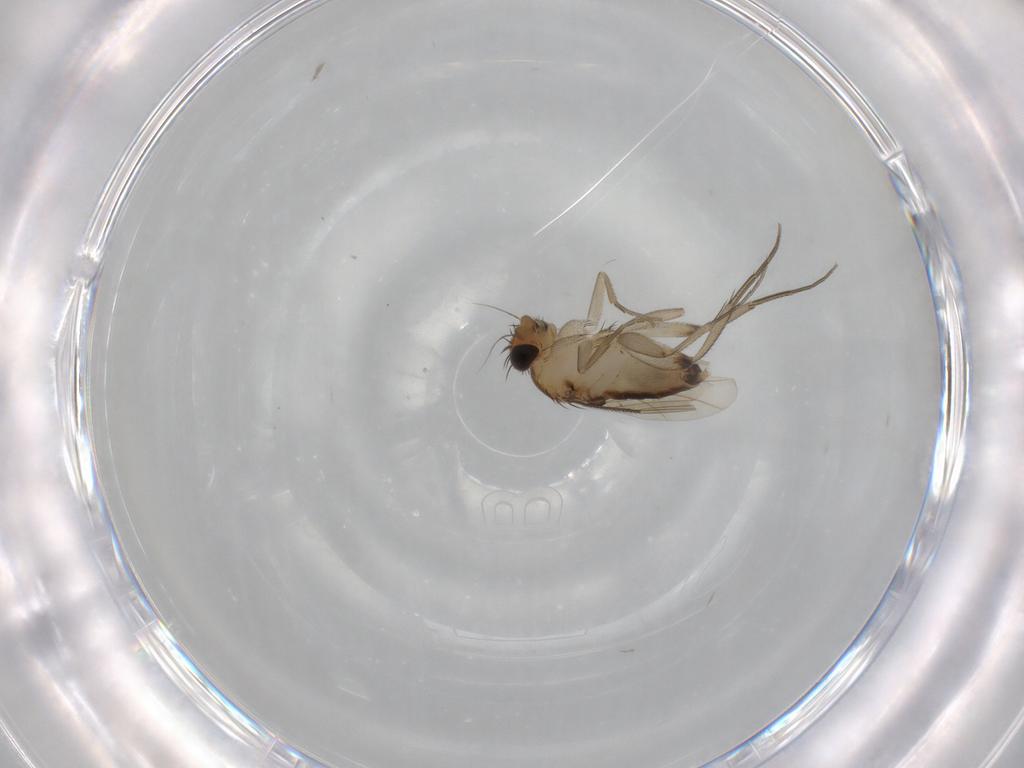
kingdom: Animalia
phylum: Arthropoda
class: Insecta
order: Diptera
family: Phoridae
